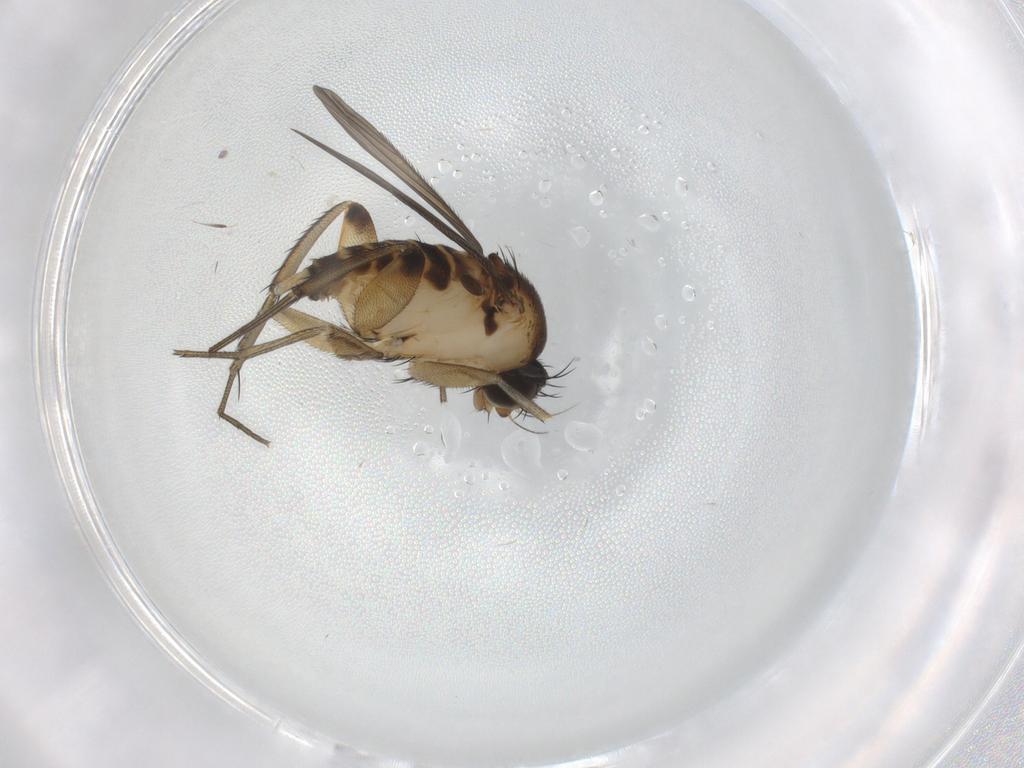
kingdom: Animalia
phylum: Arthropoda
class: Insecta
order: Diptera
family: Phoridae
